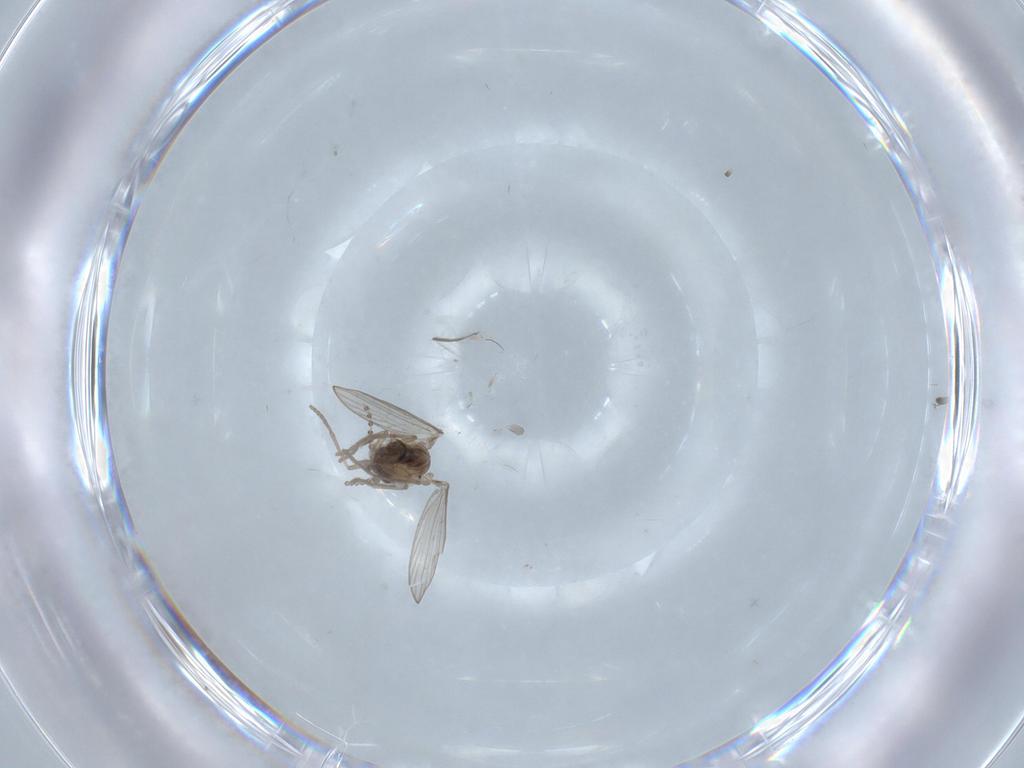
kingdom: Animalia
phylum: Arthropoda
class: Insecta
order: Diptera
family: Psychodidae
